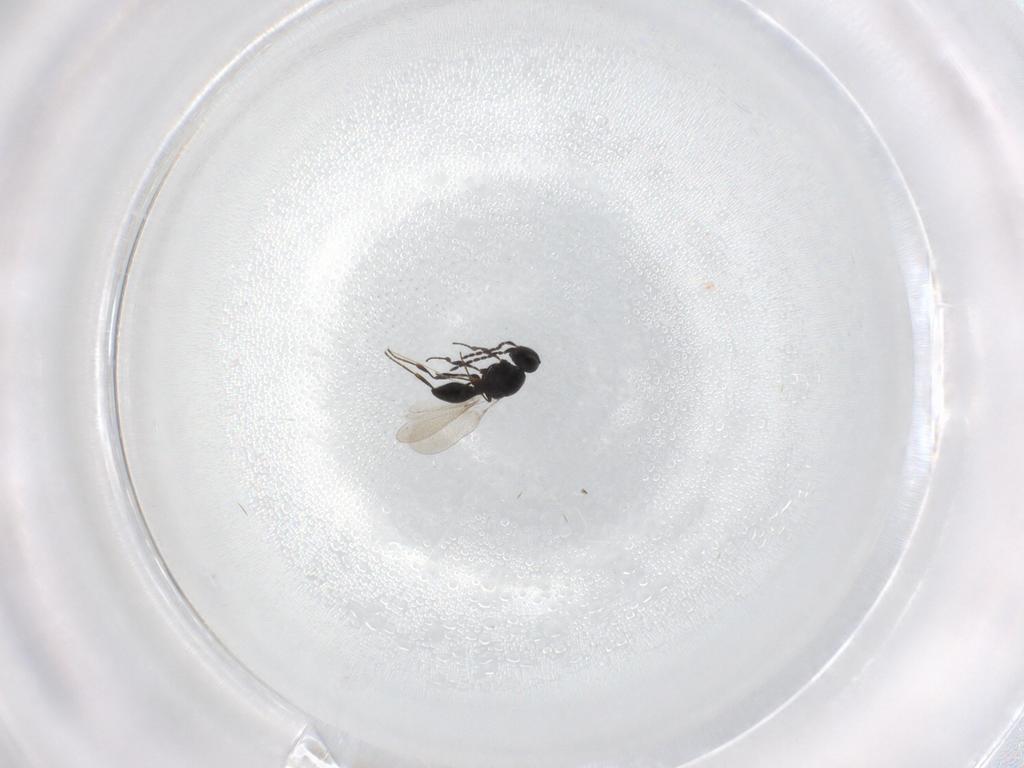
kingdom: Animalia
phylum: Arthropoda
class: Insecta
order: Hymenoptera
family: Platygastridae
